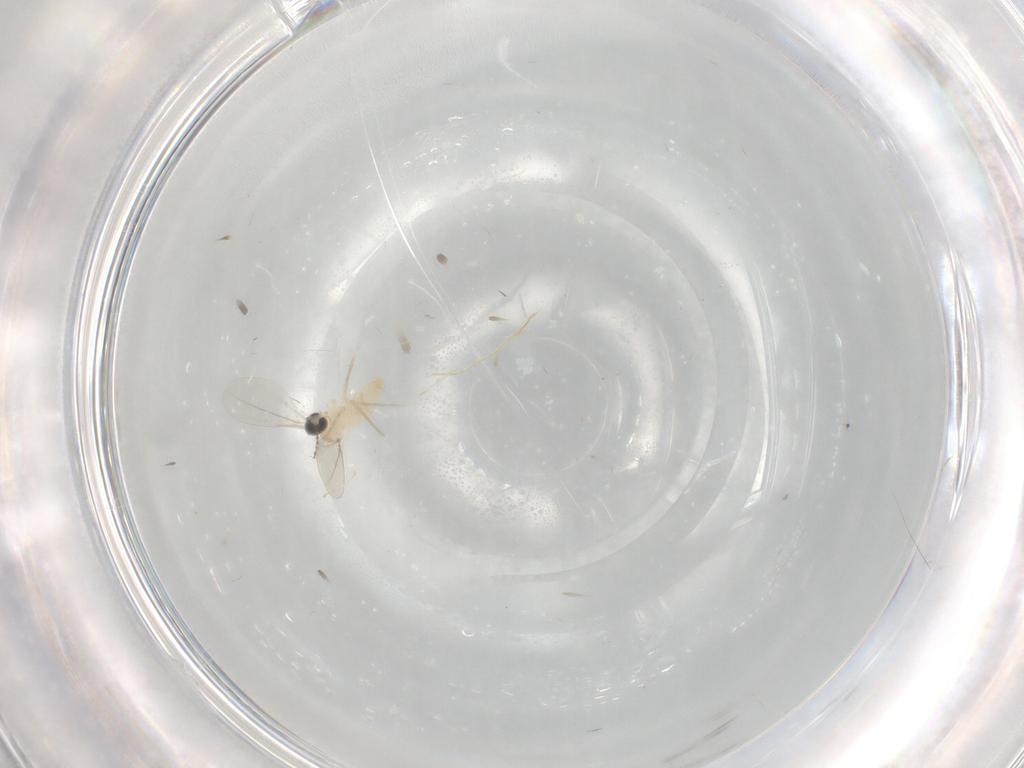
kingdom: Animalia
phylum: Arthropoda
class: Insecta
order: Diptera
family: Cecidomyiidae
